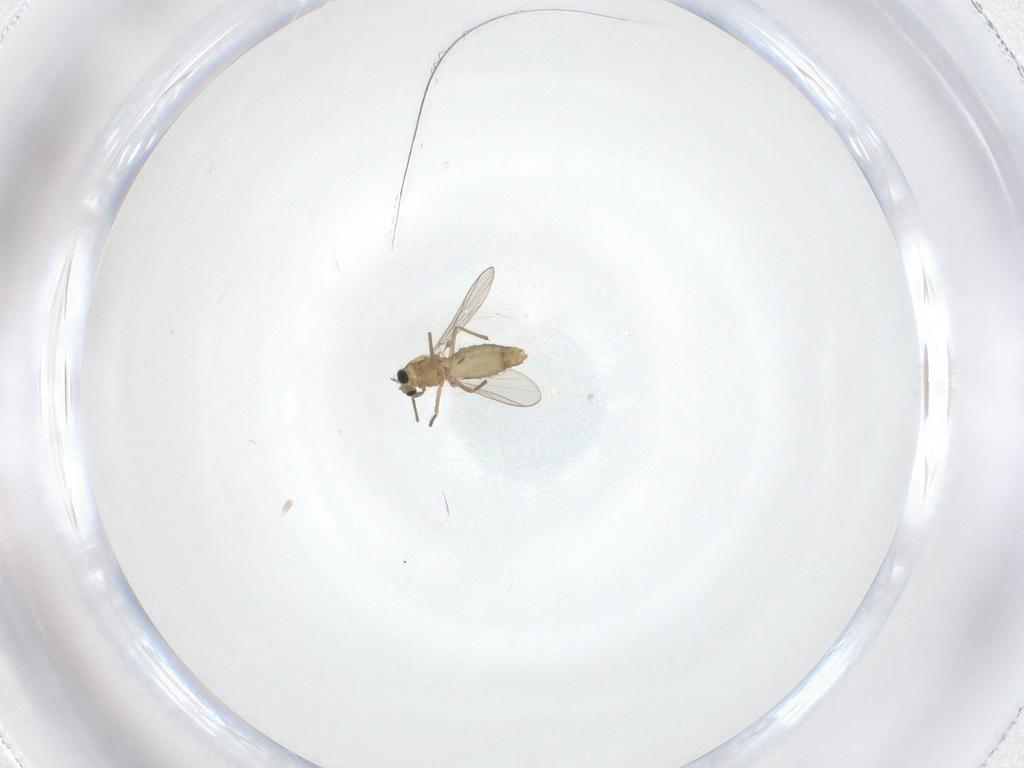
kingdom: Animalia
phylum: Arthropoda
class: Insecta
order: Diptera
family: Chironomidae
